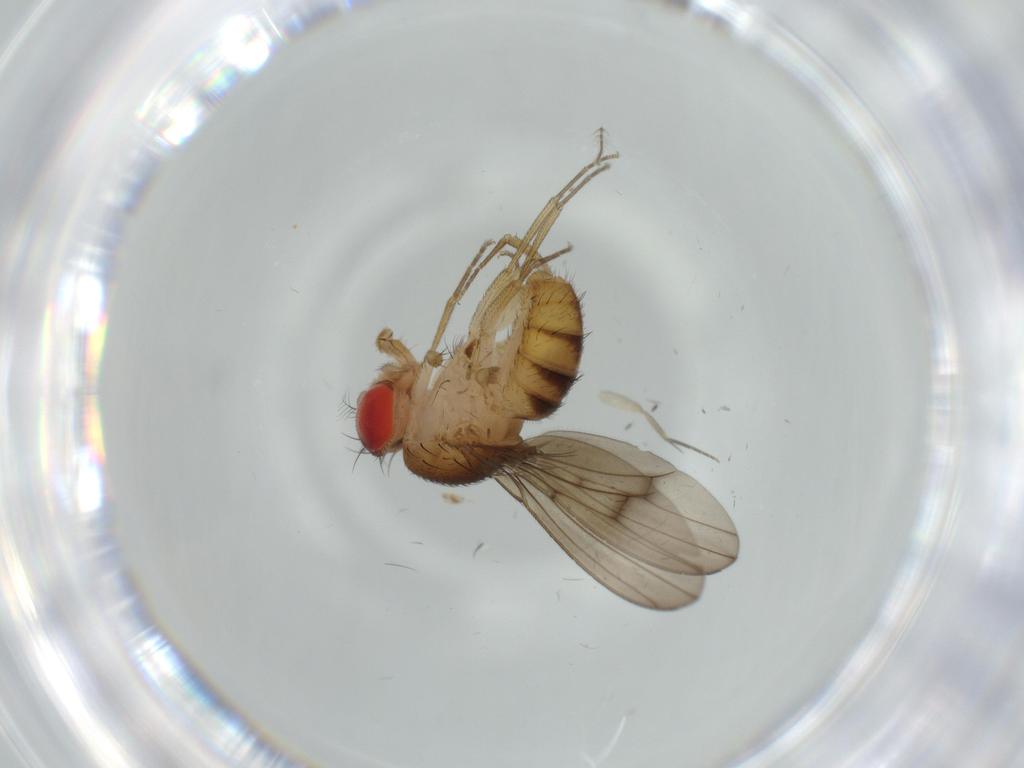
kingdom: Animalia
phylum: Arthropoda
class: Insecta
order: Diptera
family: Drosophilidae
